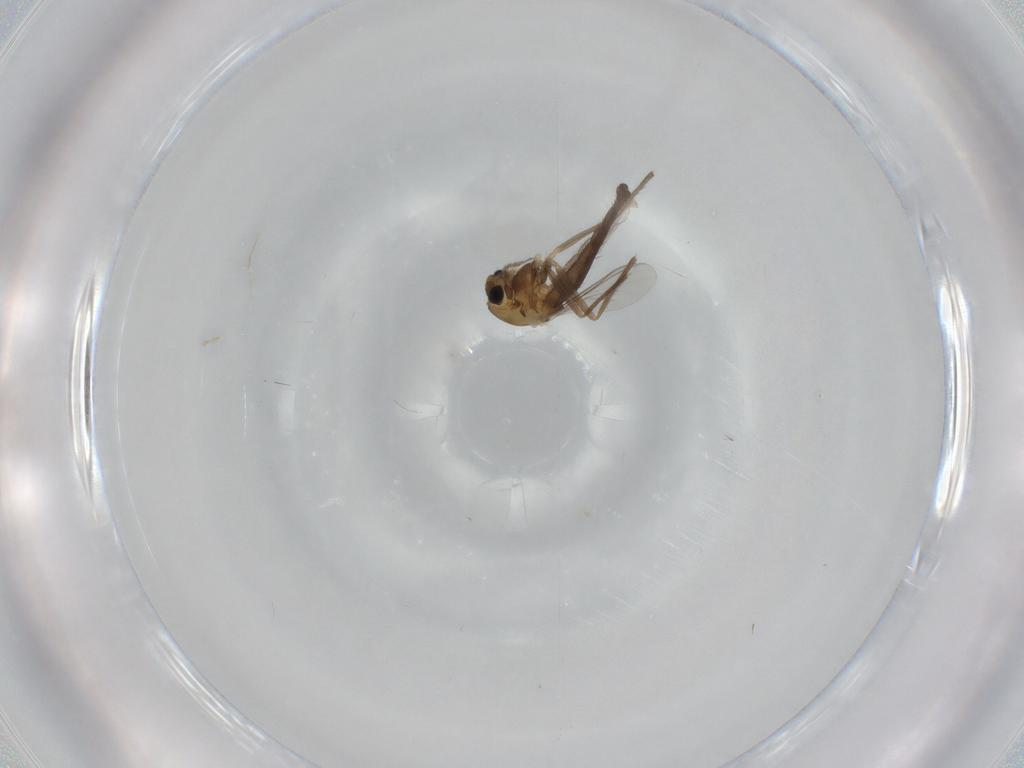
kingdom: Animalia
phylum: Arthropoda
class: Insecta
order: Diptera
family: Chironomidae
